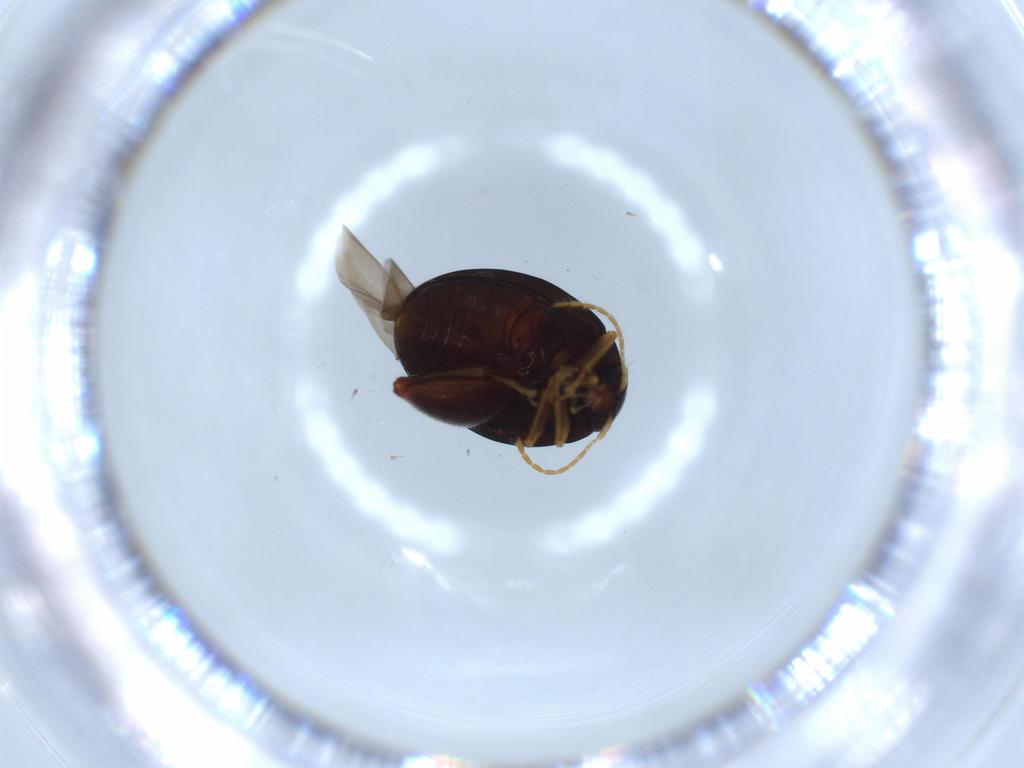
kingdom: Animalia
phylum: Arthropoda
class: Insecta
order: Coleoptera
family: Chrysomelidae
